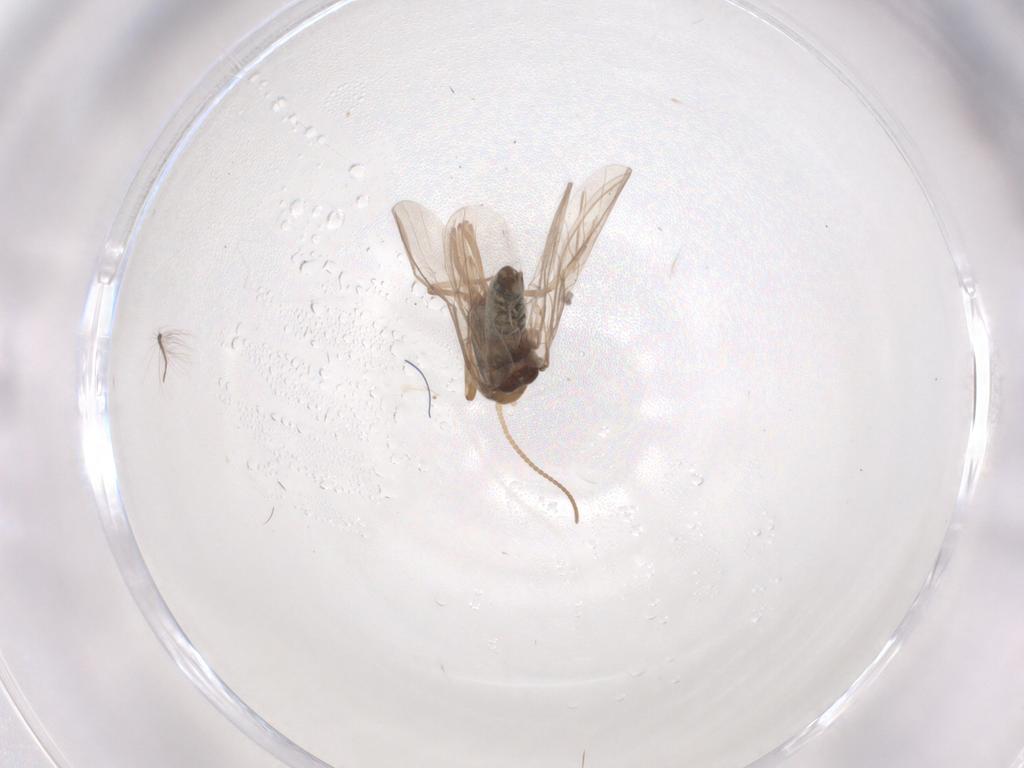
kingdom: Animalia
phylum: Arthropoda
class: Insecta
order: Neuroptera
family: Coniopterygidae
